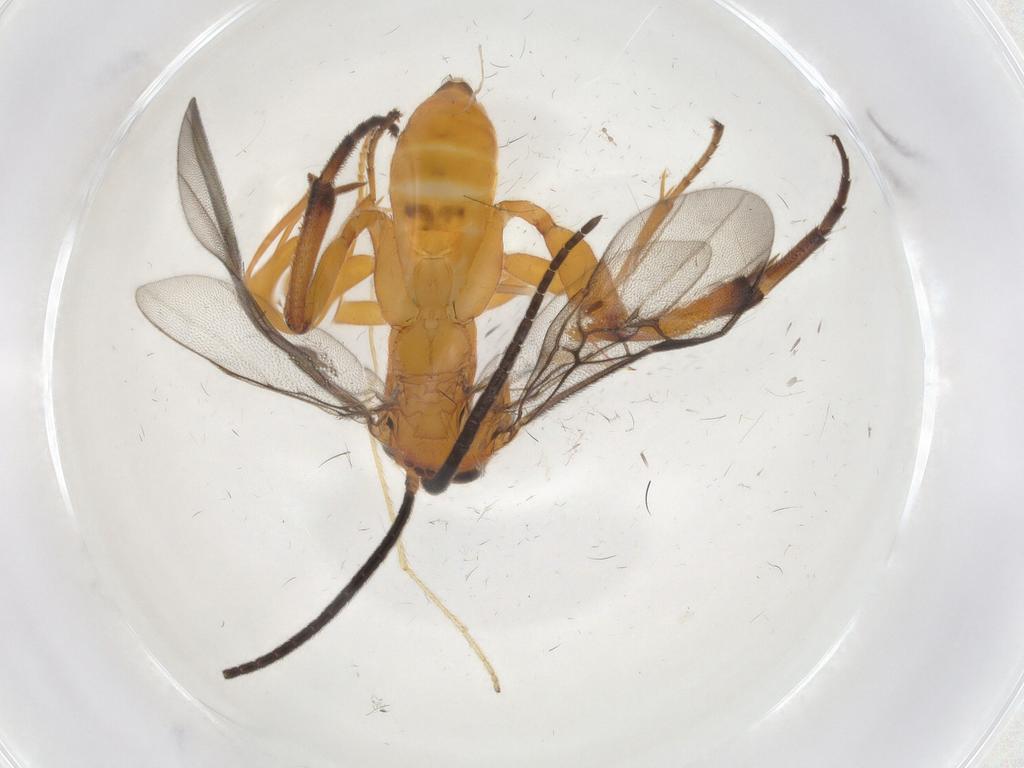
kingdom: Animalia
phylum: Arthropoda
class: Insecta
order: Hymenoptera
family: Braconidae
